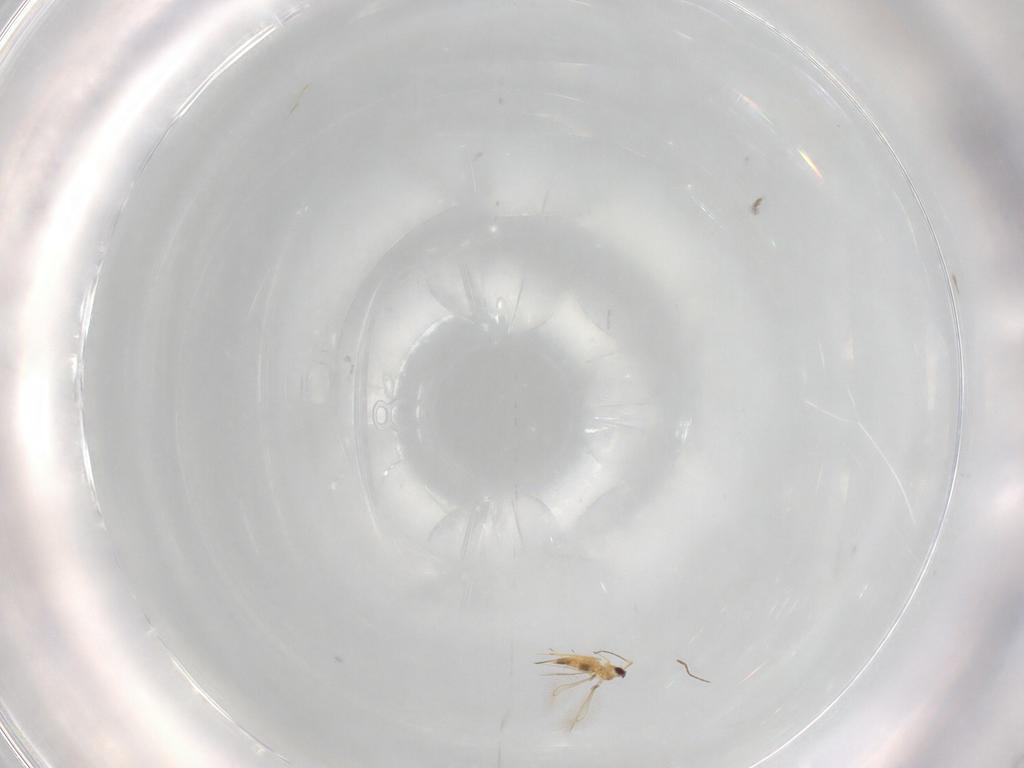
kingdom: Animalia
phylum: Arthropoda
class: Insecta
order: Hymenoptera
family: Mymaridae
